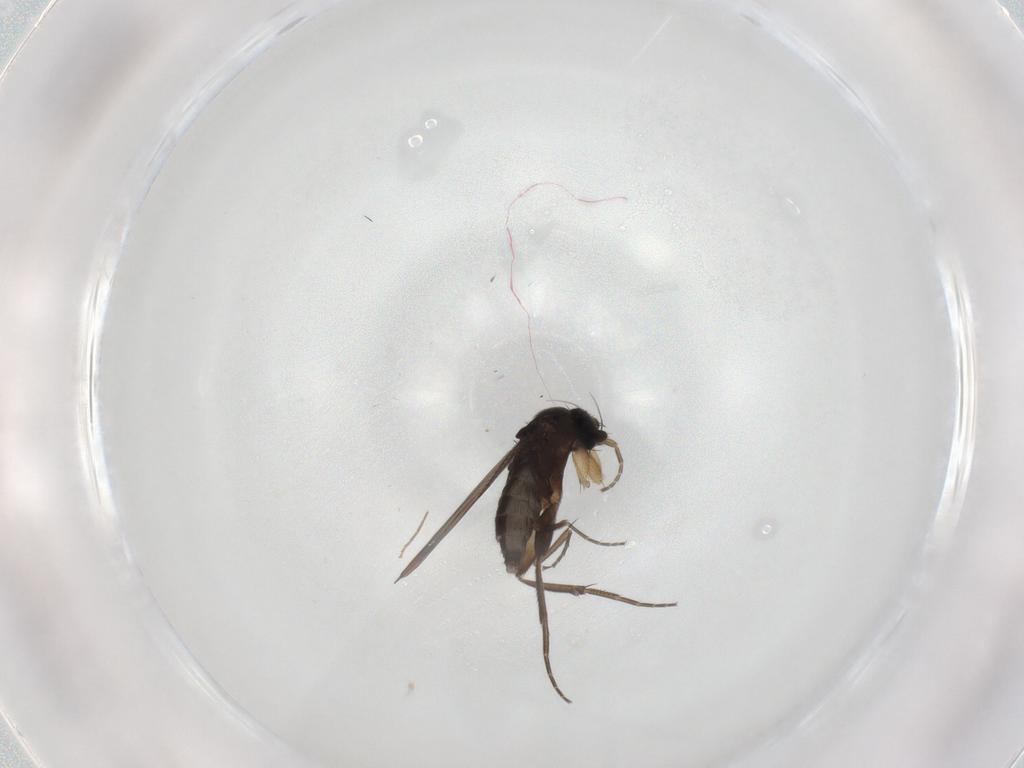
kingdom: Animalia
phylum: Arthropoda
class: Insecta
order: Diptera
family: Phoridae
